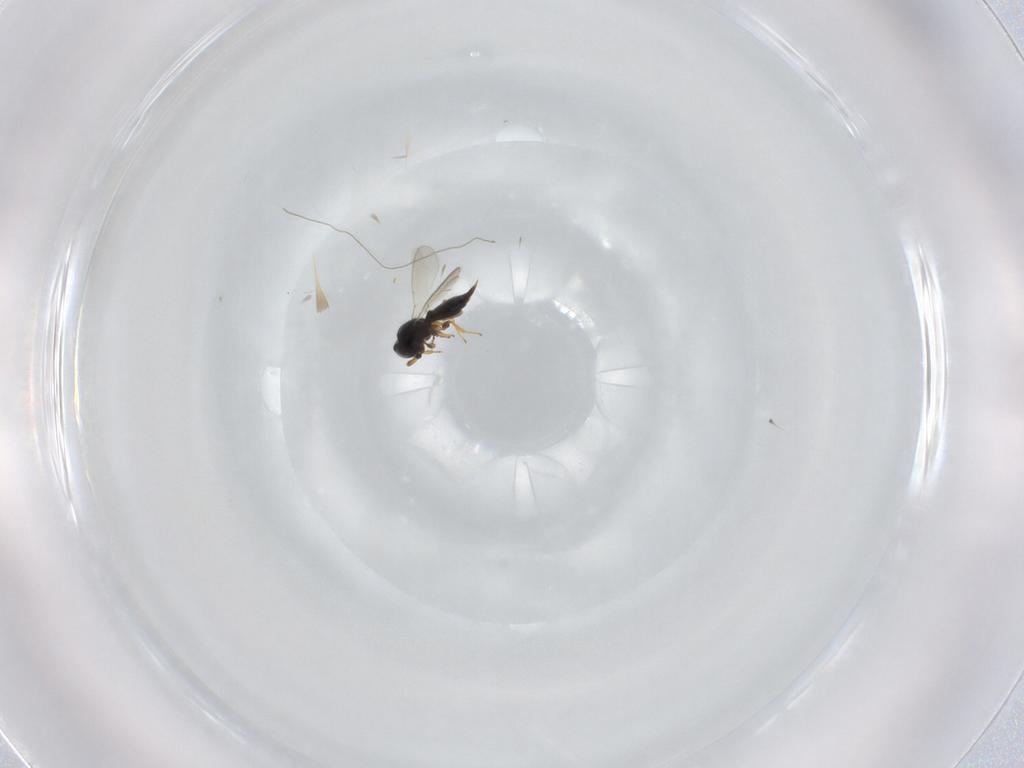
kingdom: Animalia
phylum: Arthropoda
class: Insecta
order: Hymenoptera
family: Platygastridae
